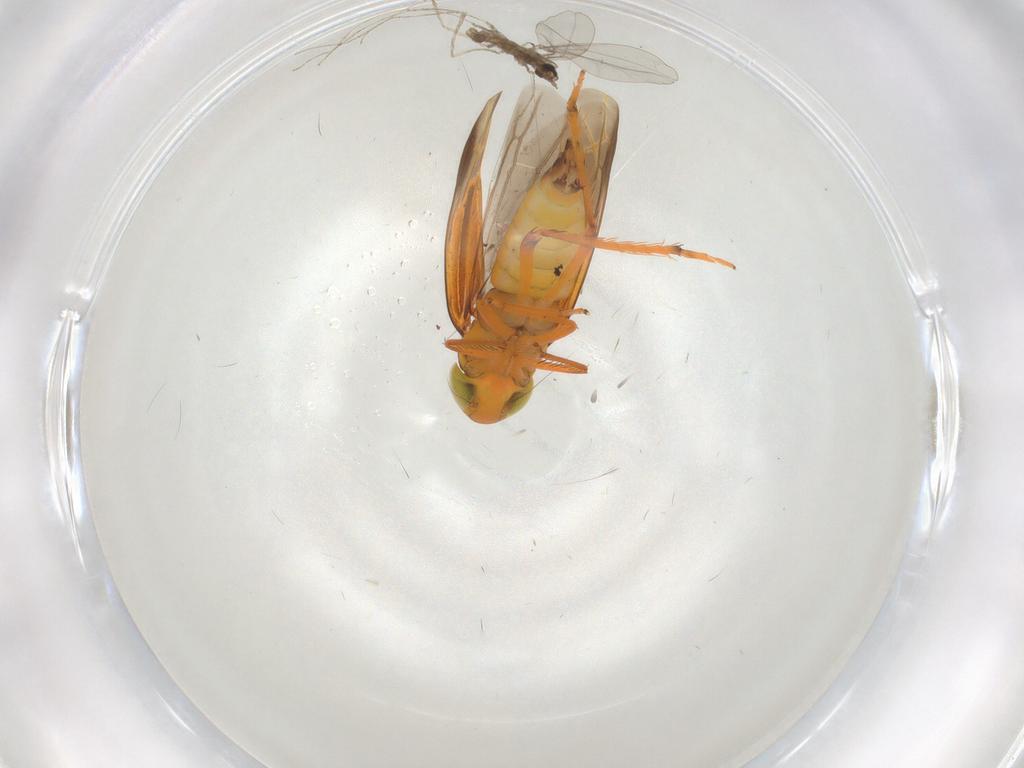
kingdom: Animalia
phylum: Arthropoda
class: Insecta
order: Hemiptera
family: Cicadellidae
